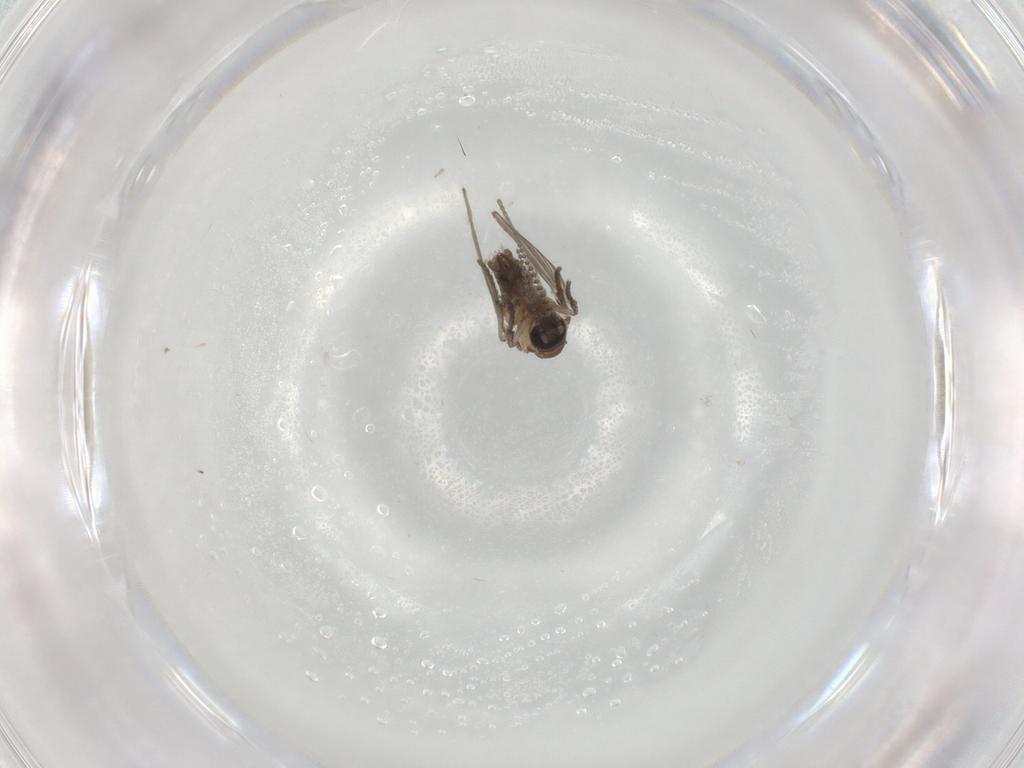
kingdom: Animalia
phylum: Arthropoda
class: Insecta
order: Diptera
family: Psychodidae
